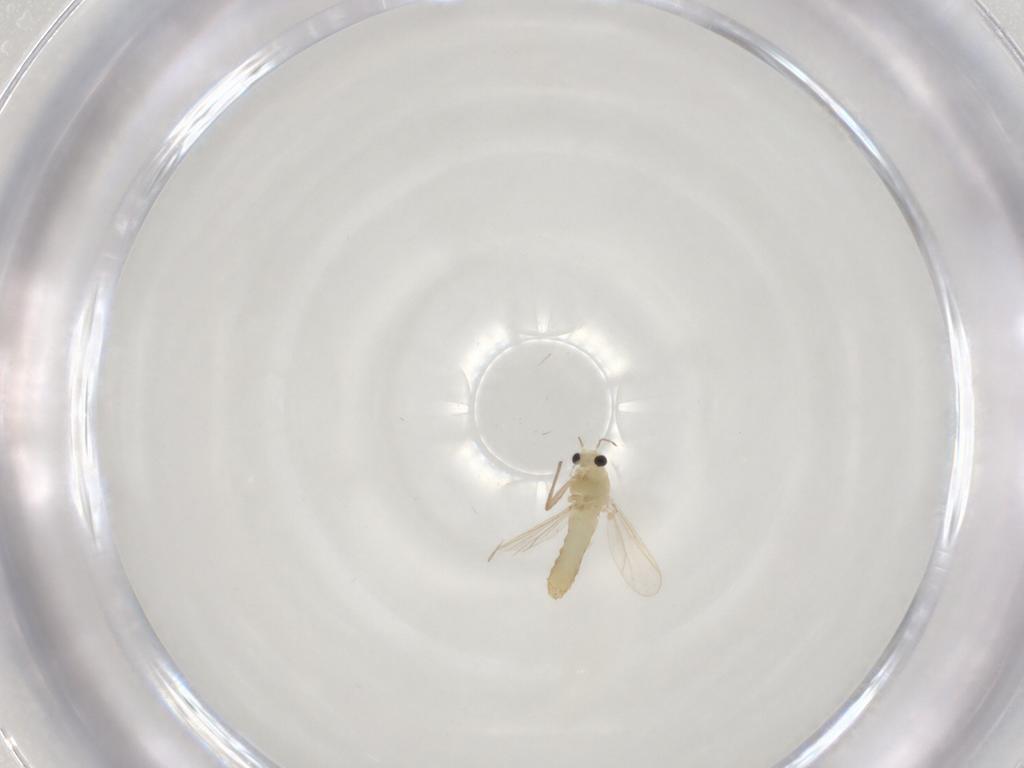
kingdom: Animalia
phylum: Arthropoda
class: Insecta
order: Diptera
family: Chironomidae
